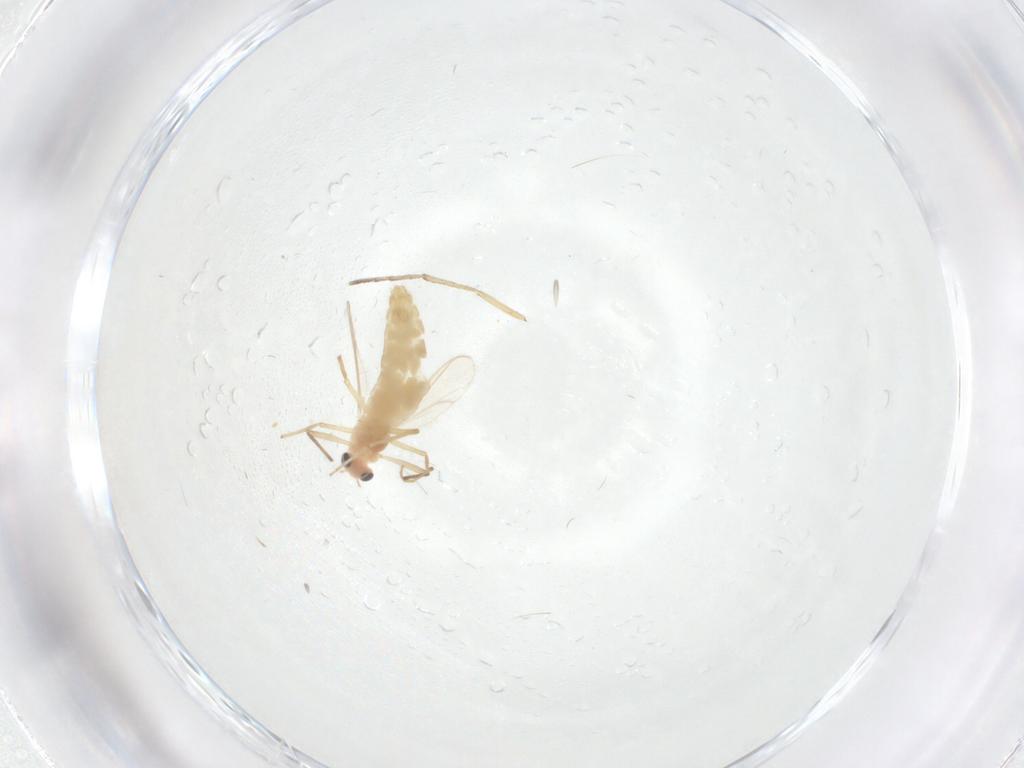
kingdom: Animalia
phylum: Arthropoda
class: Insecta
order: Diptera
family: Chironomidae
